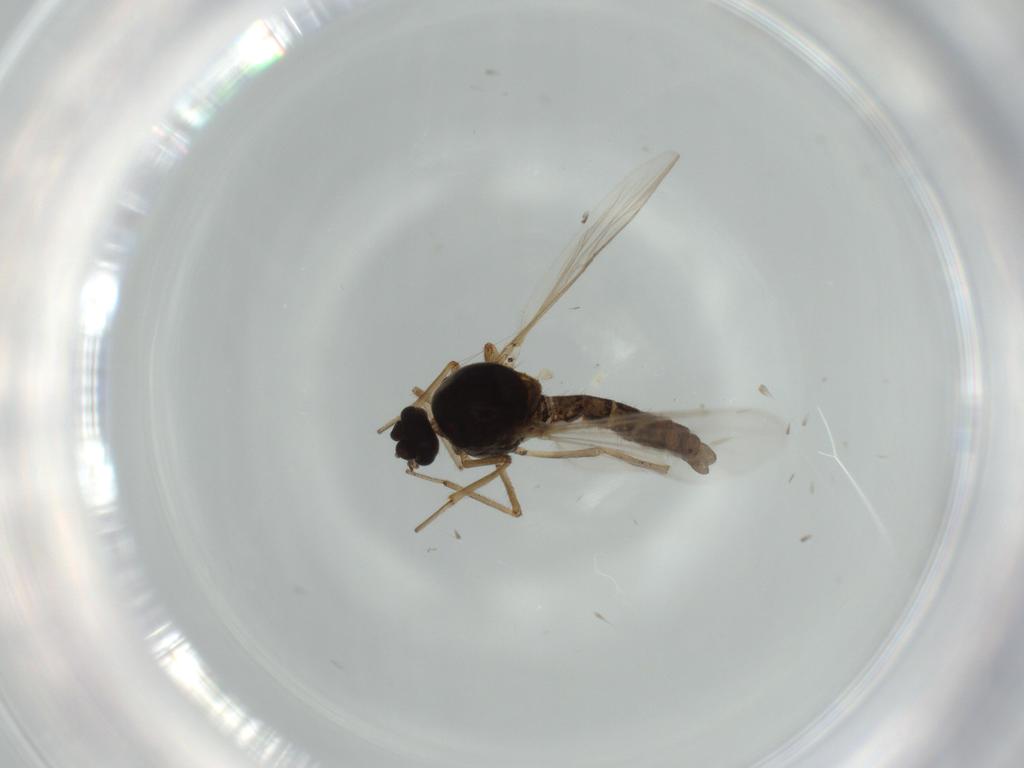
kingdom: Animalia
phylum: Arthropoda
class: Insecta
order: Diptera
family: Ceratopogonidae
